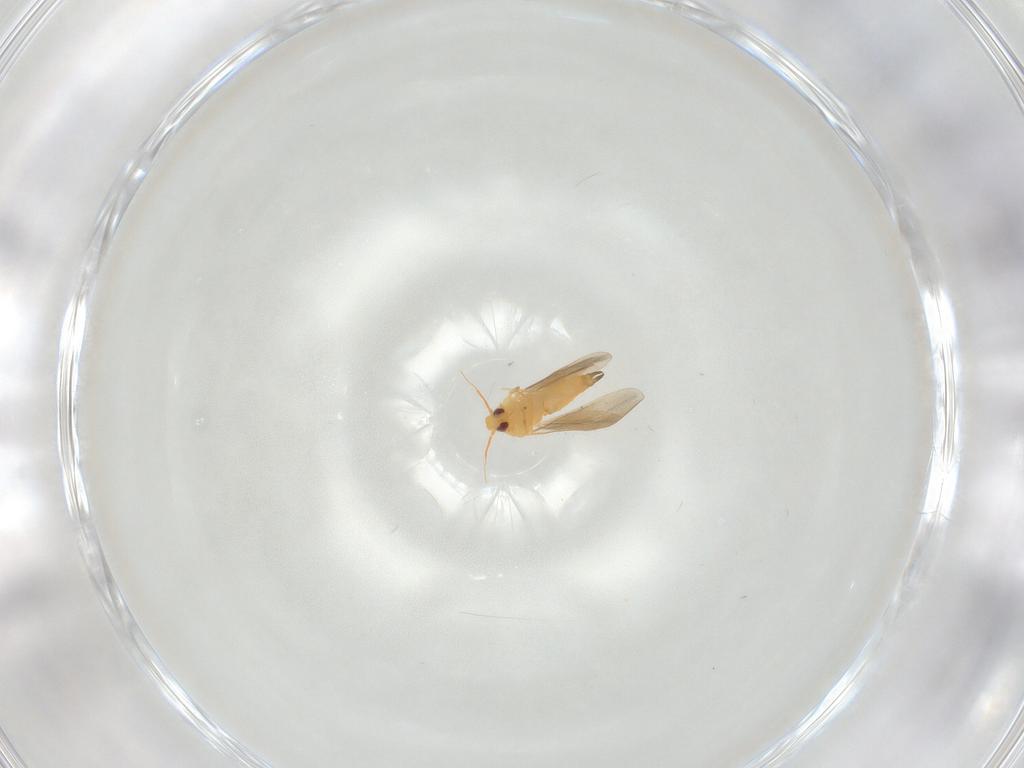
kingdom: Animalia
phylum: Arthropoda
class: Insecta
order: Hemiptera
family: Aleyrodidae
